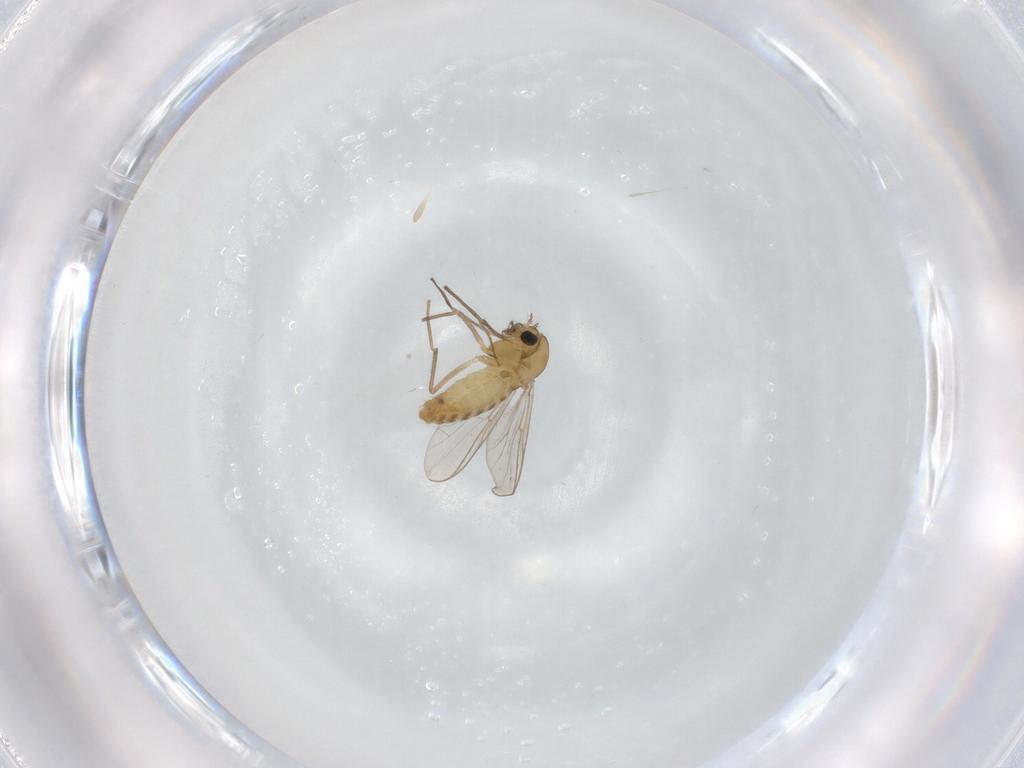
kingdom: Animalia
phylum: Arthropoda
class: Insecta
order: Diptera
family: Chironomidae
